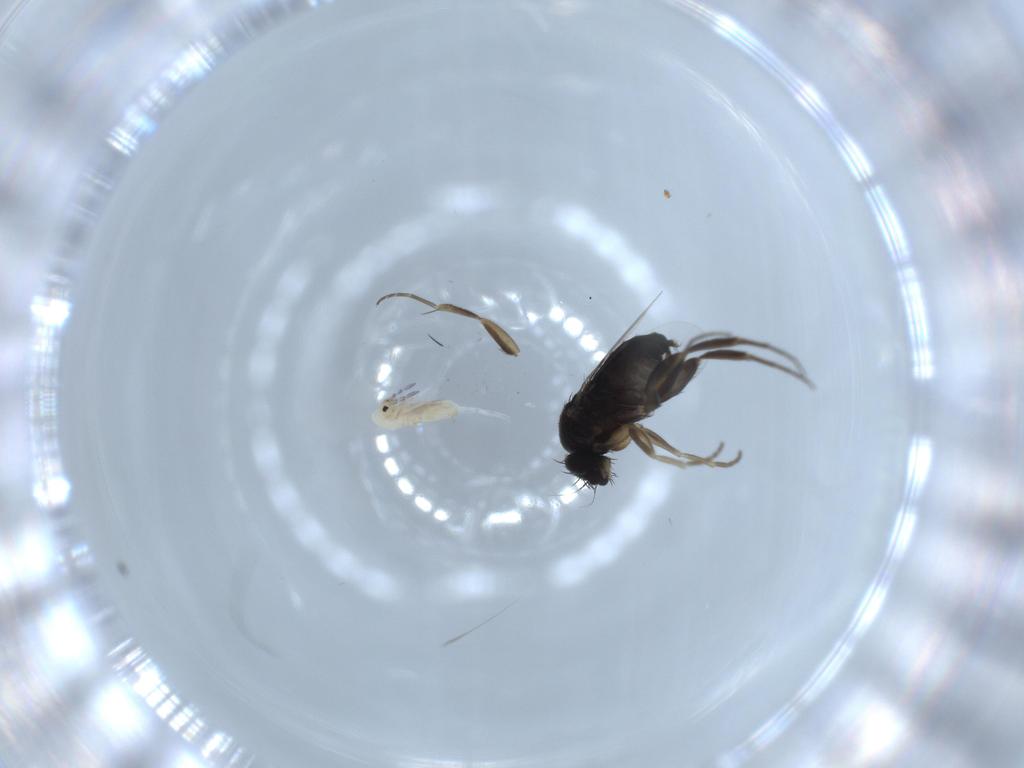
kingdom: Animalia
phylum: Arthropoda
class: Insecta
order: Diptera
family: Phoridae
